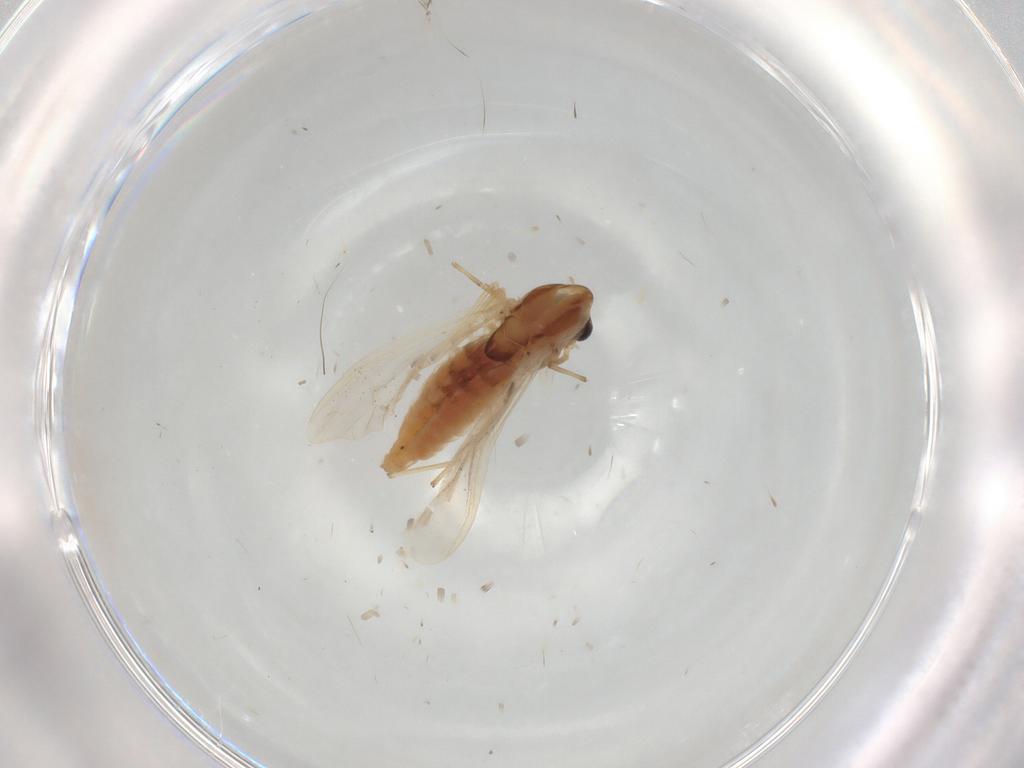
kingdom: Animalia
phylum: Arthropoda
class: Insecta
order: Diptera
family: Chironomidae
